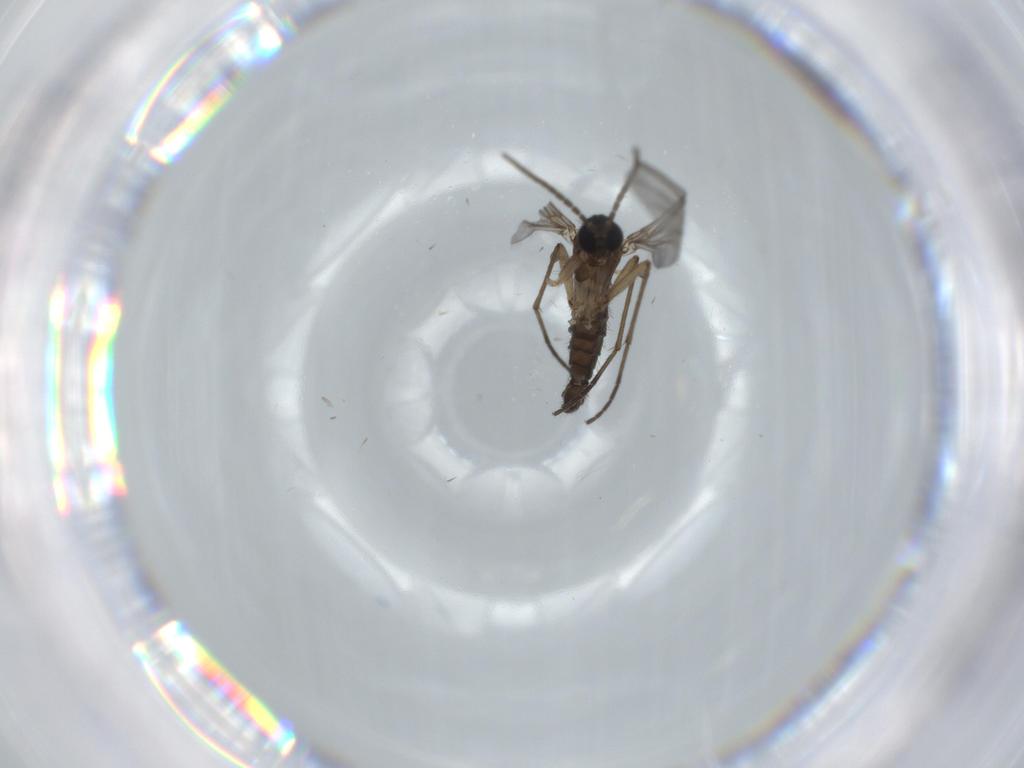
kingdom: Animalia
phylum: Arthropoda
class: Insecta
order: Diptera
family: Sciaridae
